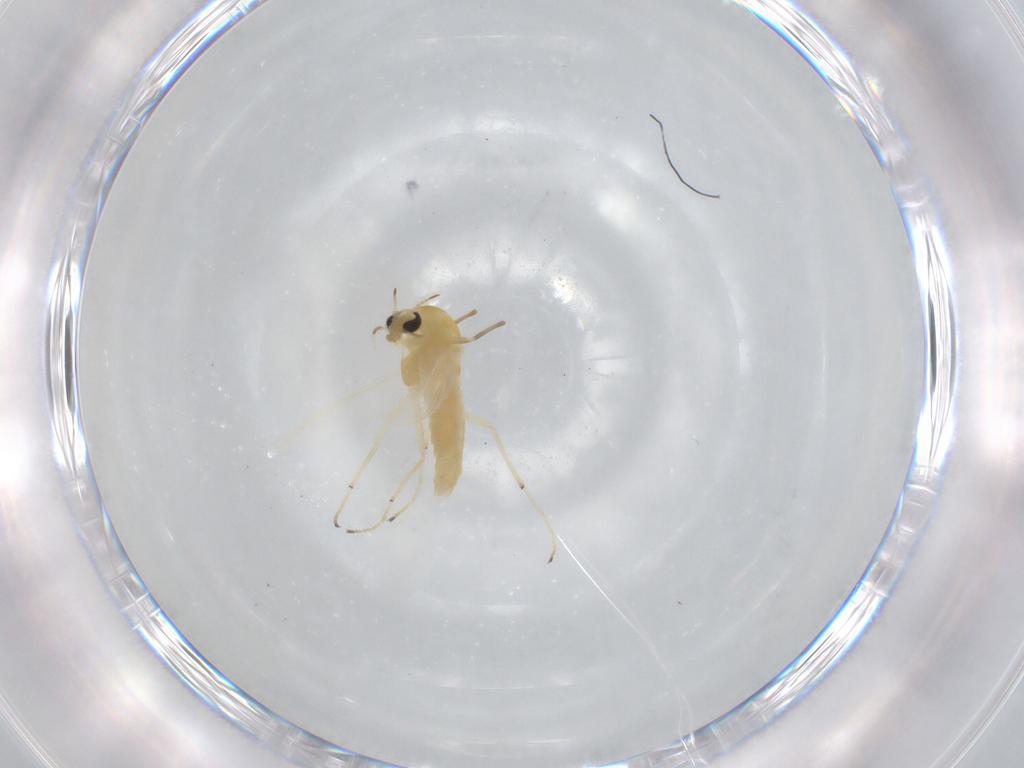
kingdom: Animalia
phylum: Arthropoda
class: Insecta
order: Diptera
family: Chironomidae
